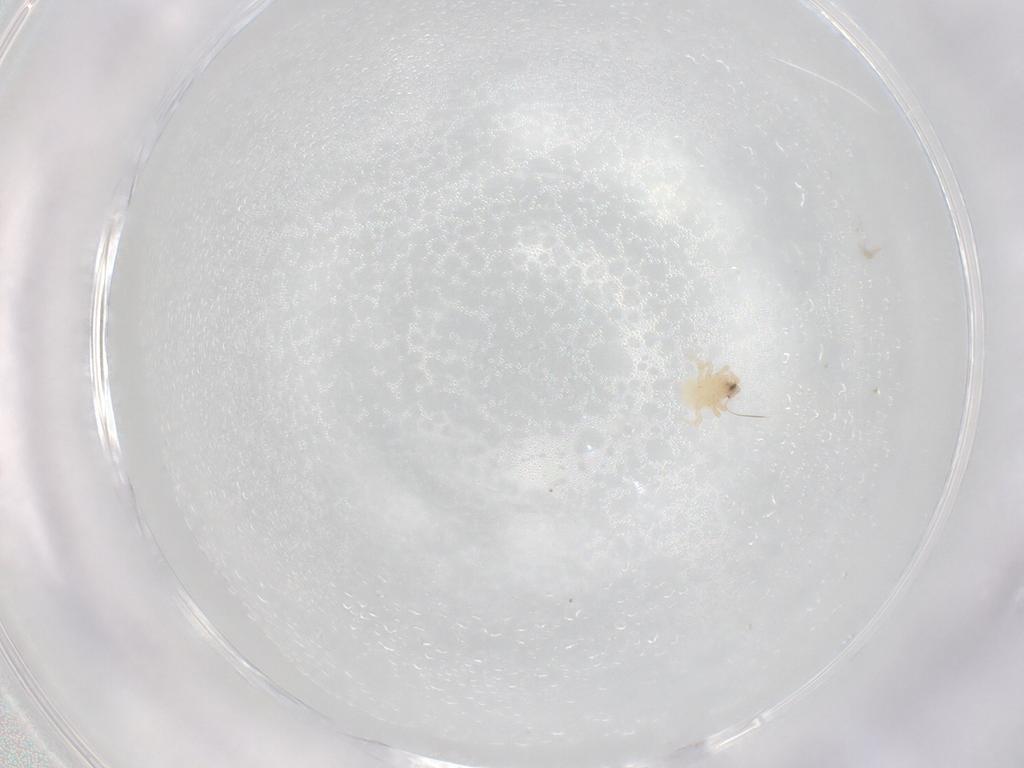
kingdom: Animalia
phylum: Arthropoda
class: Arachnida
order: Mesostigmata
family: Melicharidae
